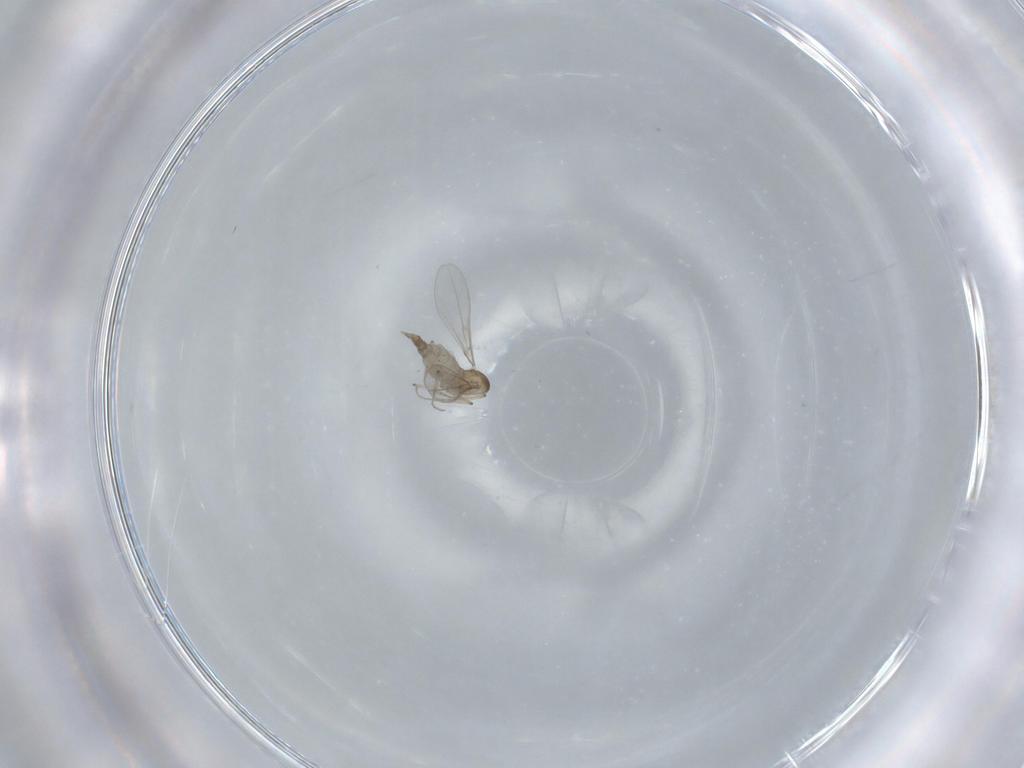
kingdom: Animalia
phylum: Arthropoda
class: Insecta
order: Diptera
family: Cecidomyiidae
